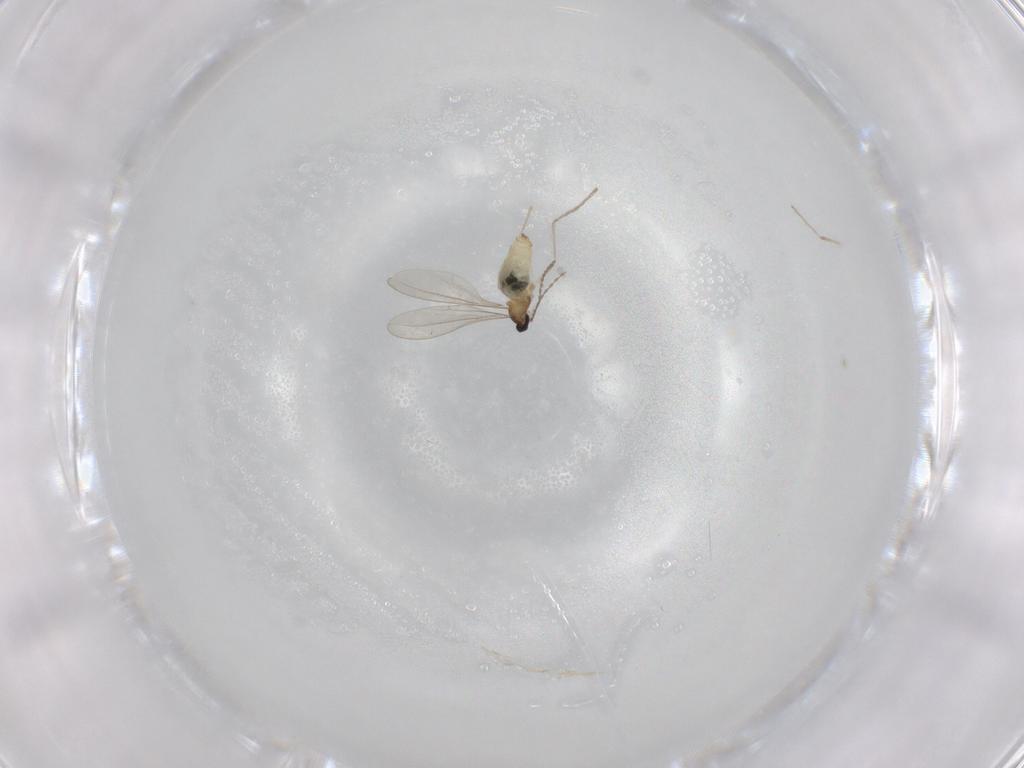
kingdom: Animalia
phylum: Arthropoda
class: Insecta
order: Diptera
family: Cecidomyiidae
